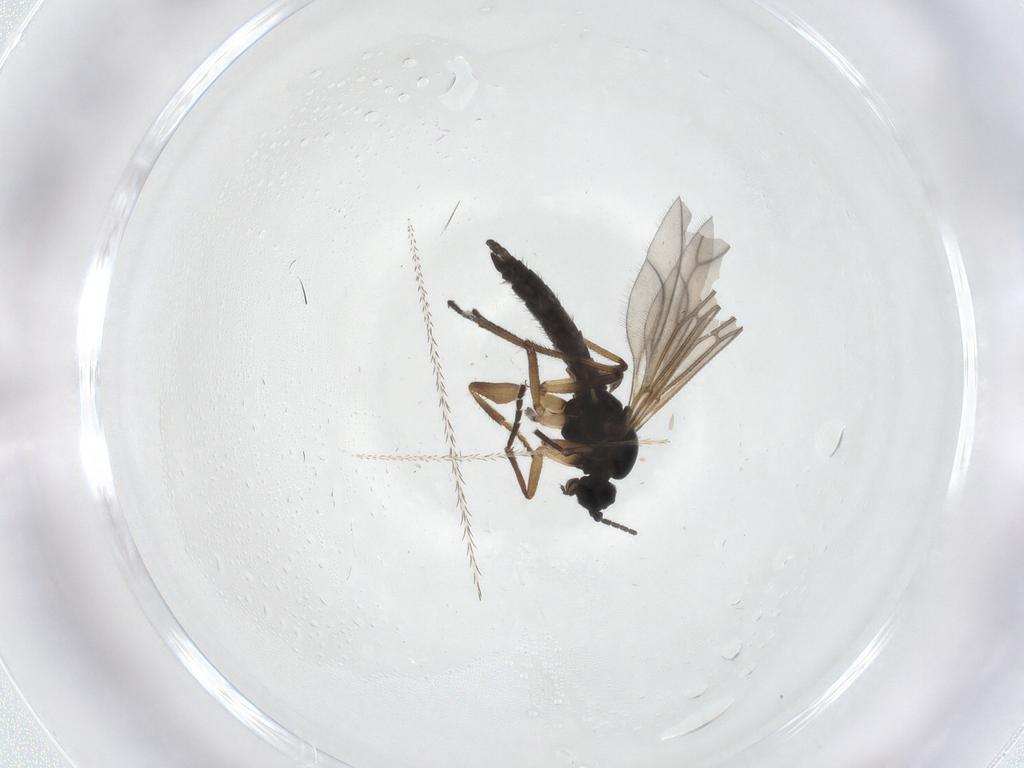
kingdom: Animalia
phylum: Arthropoda
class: Insecta
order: Diptera
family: Sciaridae
